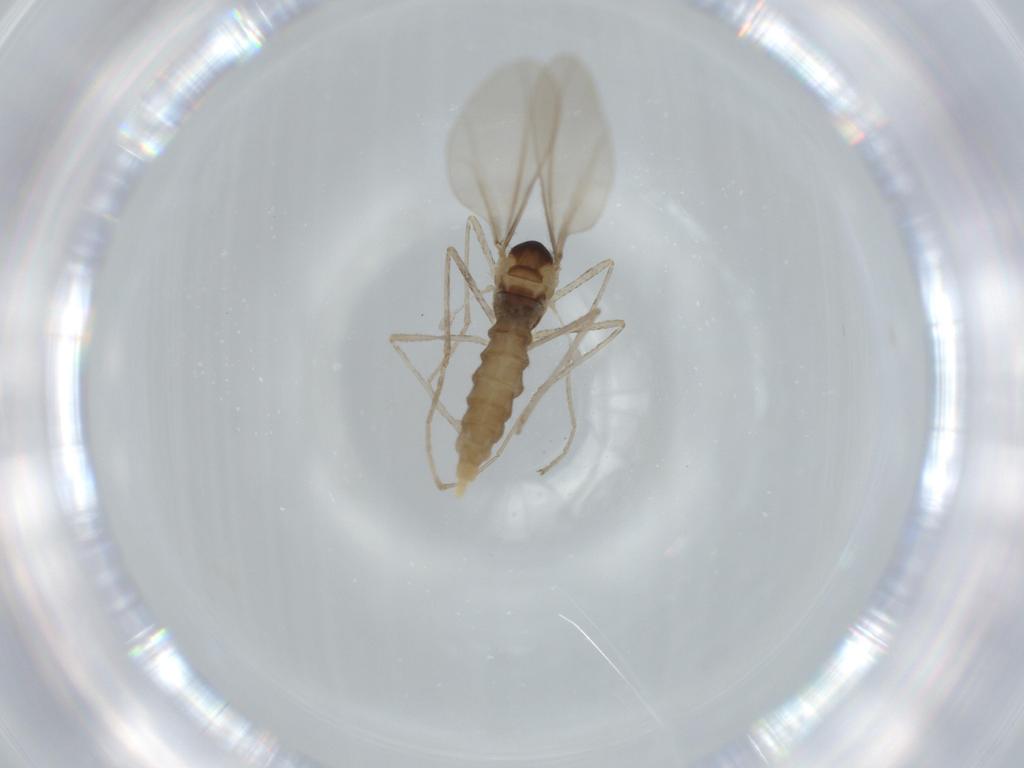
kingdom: Animalia
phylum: Arthropoda
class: Insecta
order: Diptera
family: Cecidomyiidae
